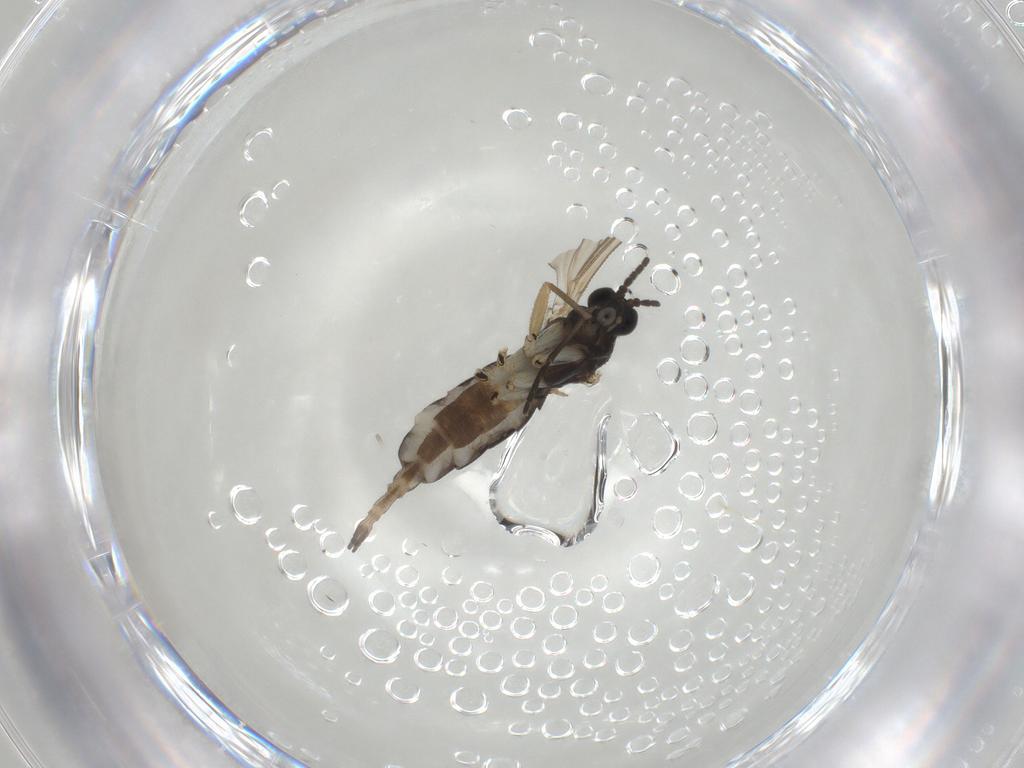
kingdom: Animalia
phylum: Arthropoda
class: Insecta
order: Diptera
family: Sciaridae
